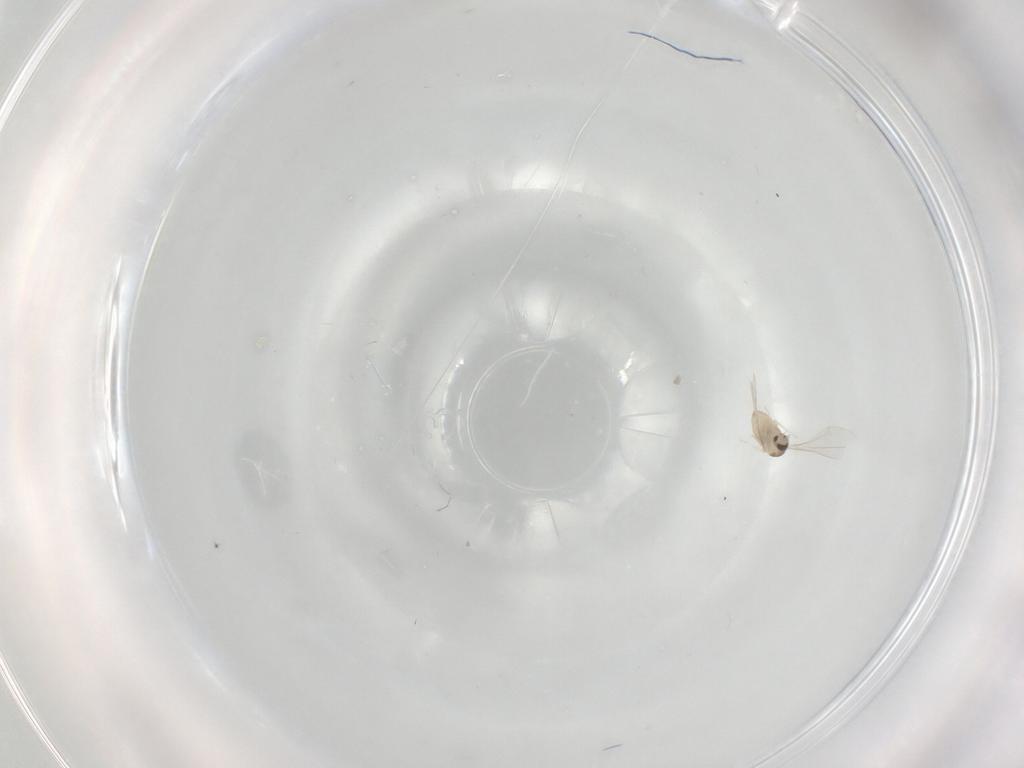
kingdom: Animalia
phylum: Arthropoda
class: Insecta
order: Diptera
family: Cecidomyiidae
